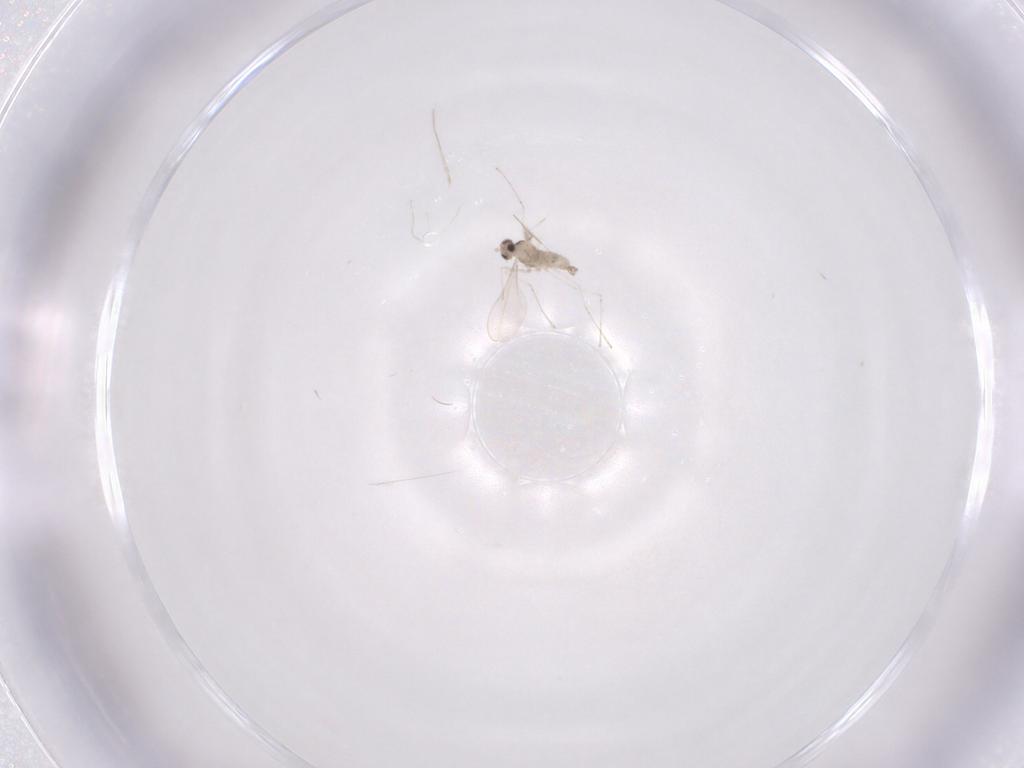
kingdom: Animalia
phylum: Arthropoda
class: Insecta
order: Diptera
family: Cecidomyiidae
